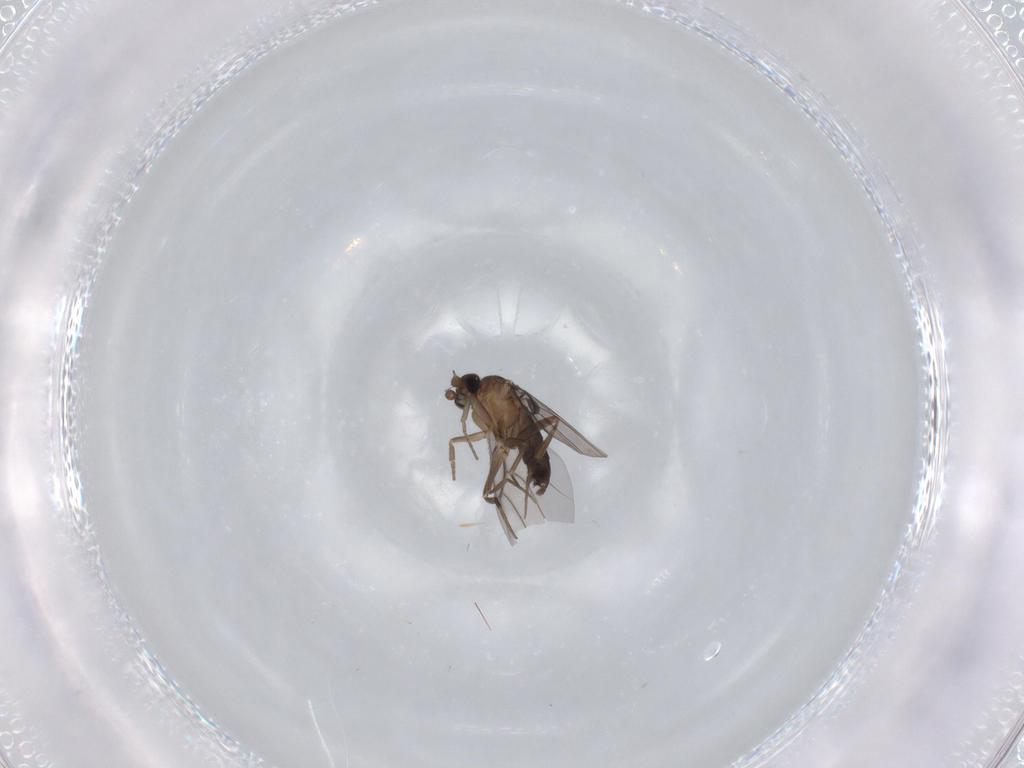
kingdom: Animalia
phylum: Arthropoda
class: Insecta
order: Diptera
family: Phoridae
